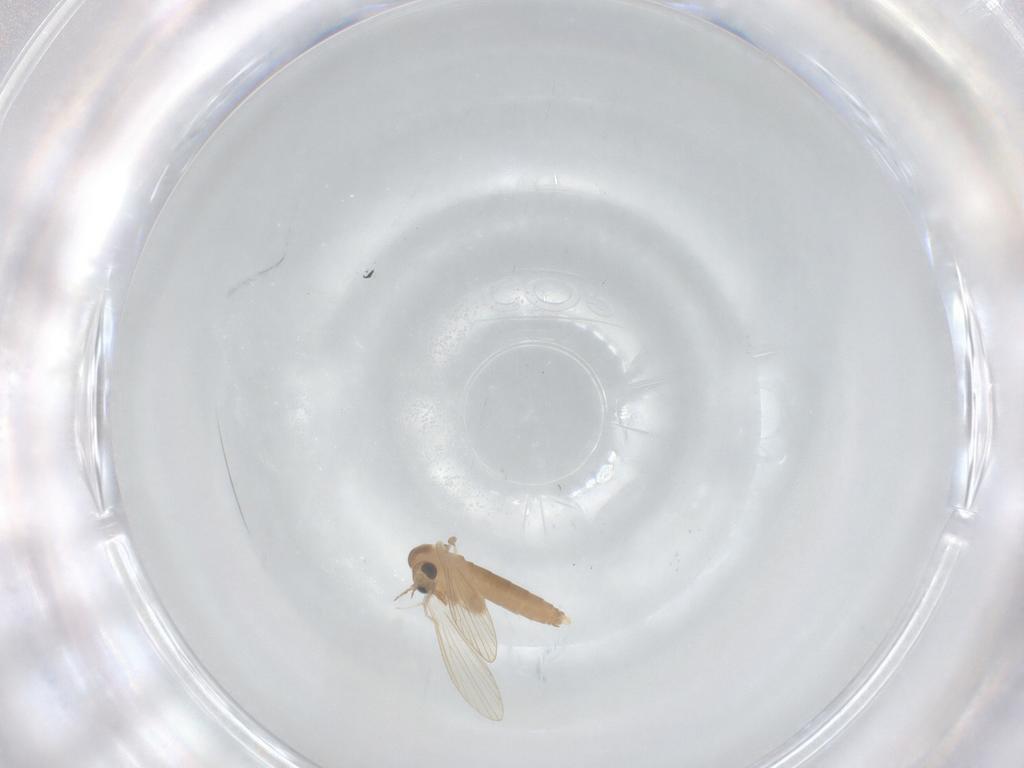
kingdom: Animalia
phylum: Arthropoda
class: Insecta
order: Diptera
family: Psychodidae
